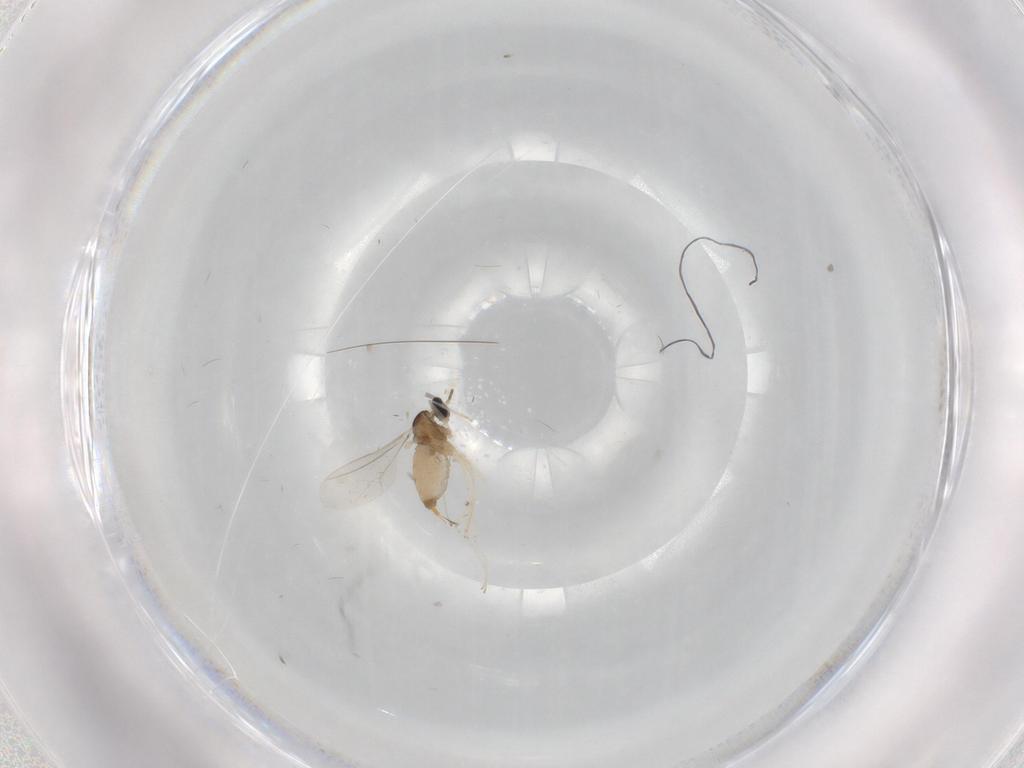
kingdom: Animalia
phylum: Arthropoda
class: Insecta
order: Diptera
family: Cecidomyiidae
